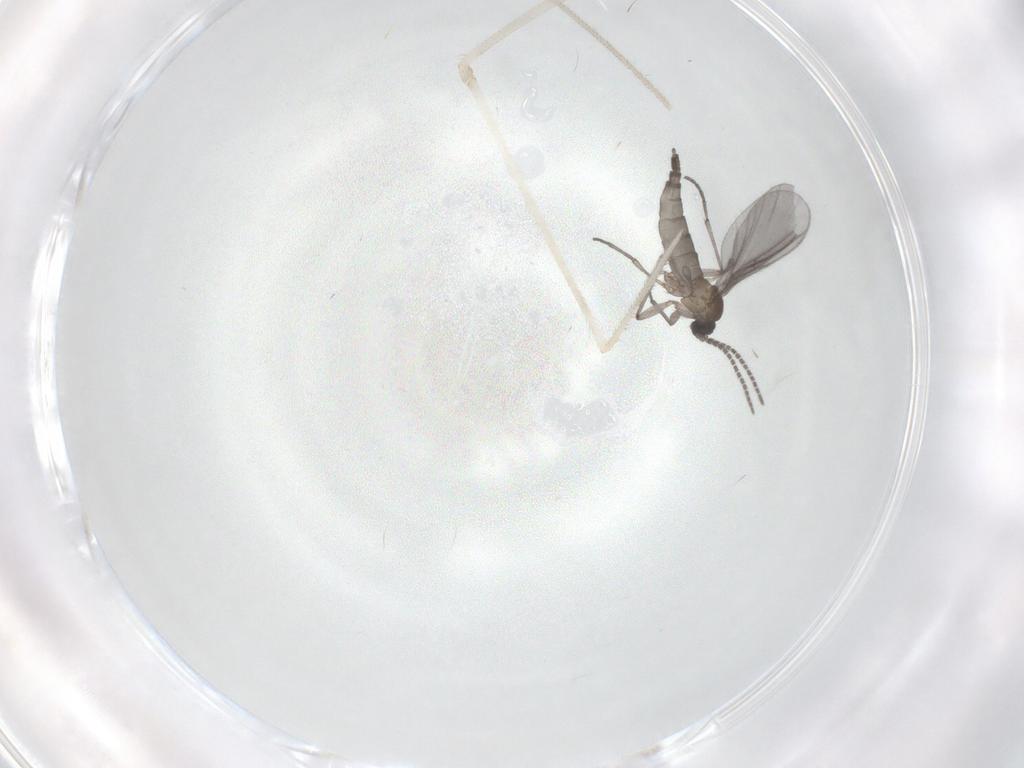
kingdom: Animalia
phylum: Arthropoda
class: Insecta
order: Diptera
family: Sciaridae
